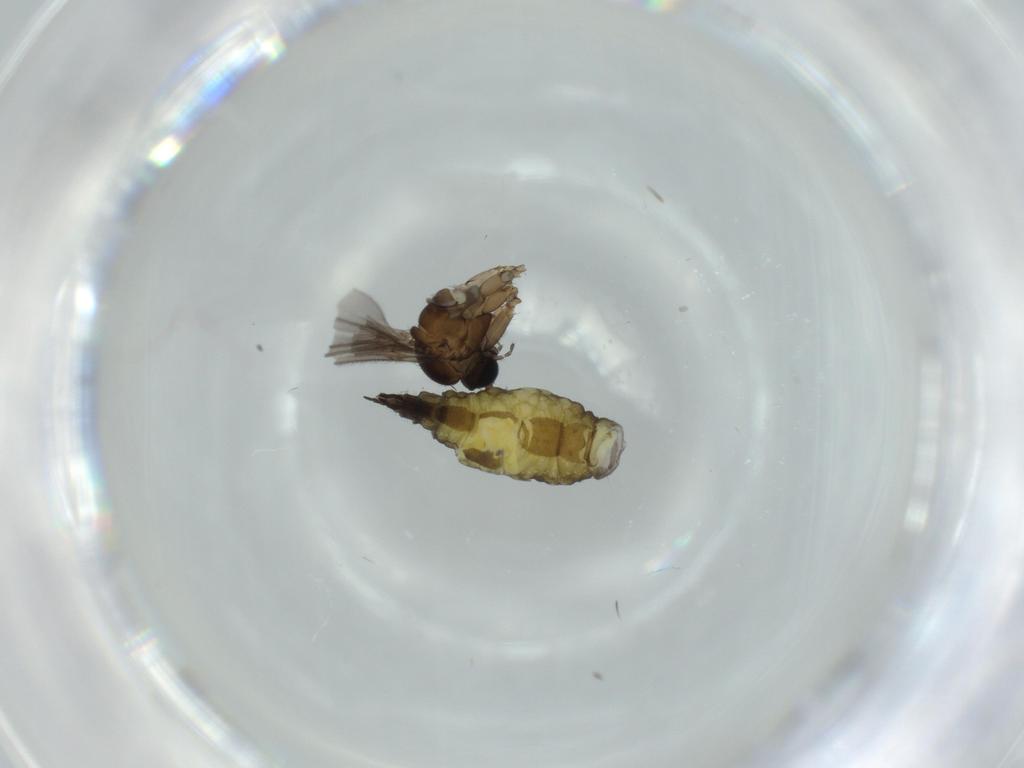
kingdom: Animalia
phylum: Arthropoda
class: Insecta
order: Diptera
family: Sciaridae
